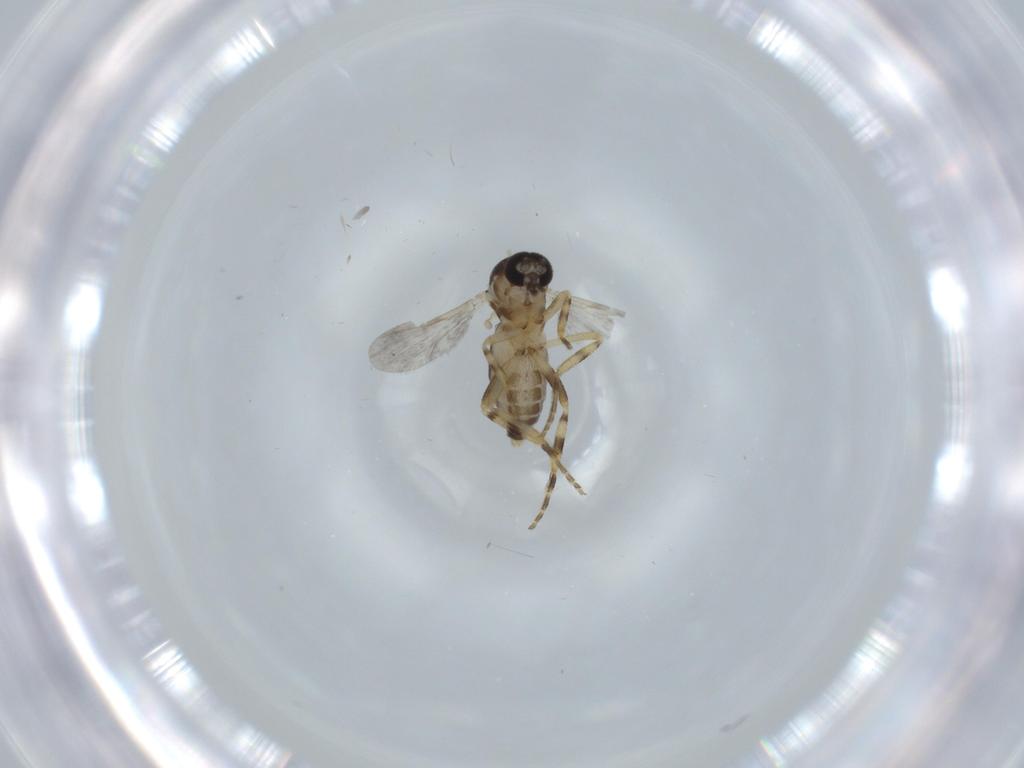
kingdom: Animalia
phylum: Arthropoda
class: Insecta
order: Diptera
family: Ceratopogonidae
